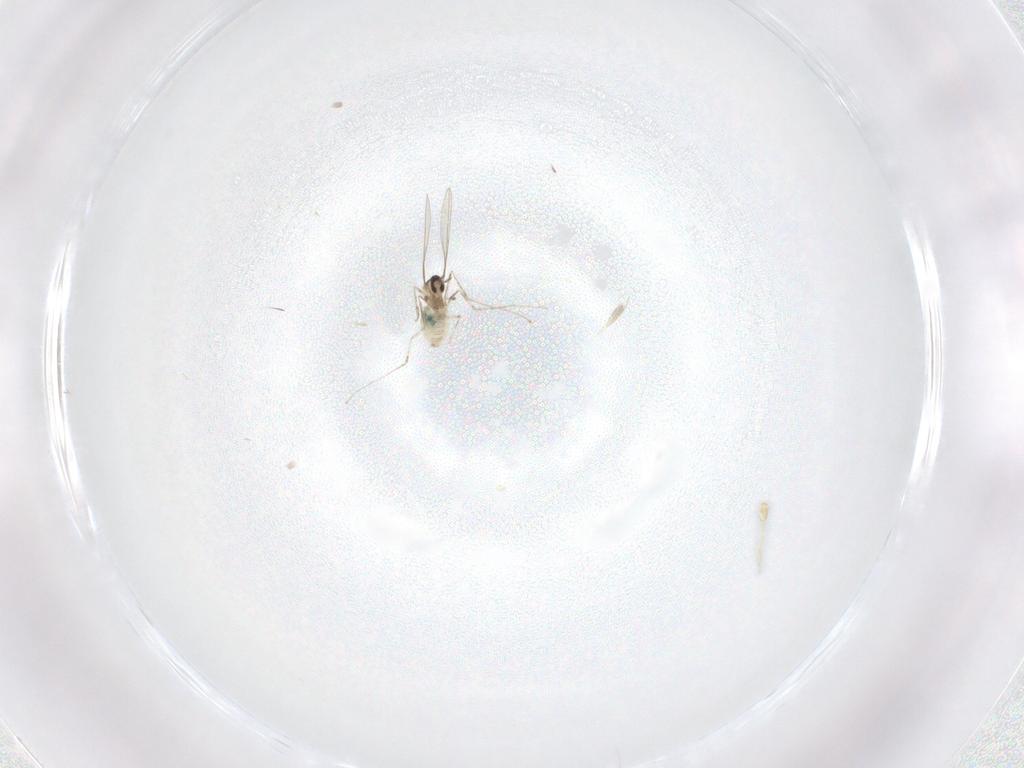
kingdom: Animalia
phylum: Arthropoda
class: Insecta
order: Diptera
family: Cecidomyiidae
